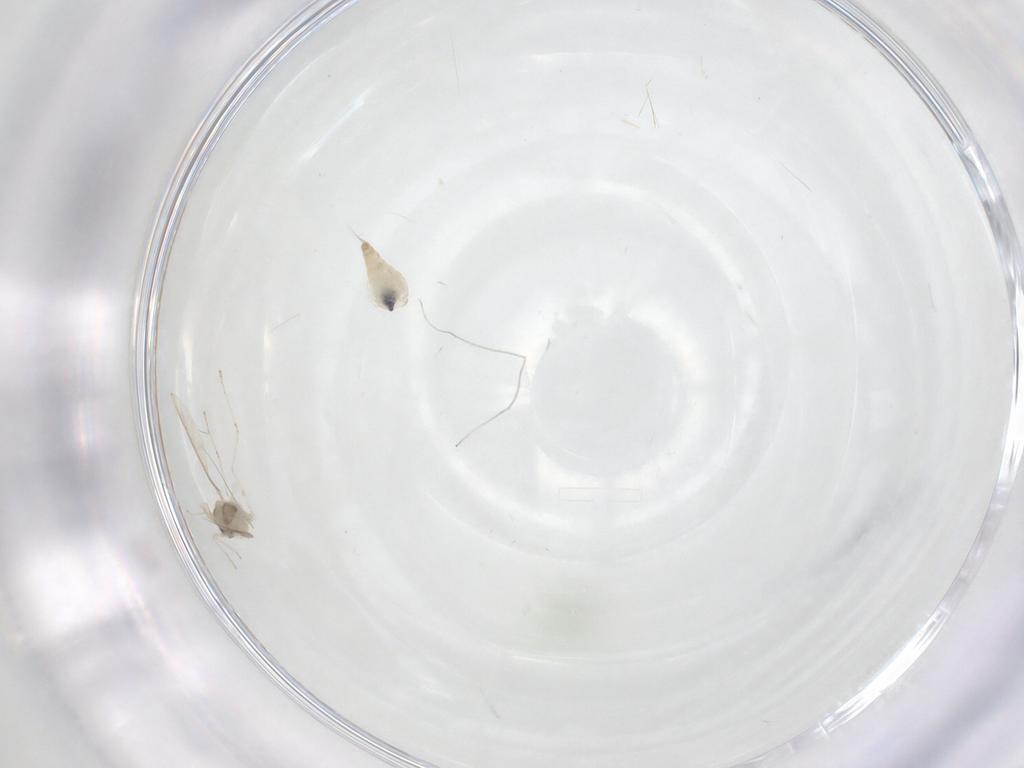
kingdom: Animalia
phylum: Arthropoda
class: Insecta
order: Diptera
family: Cecidomyiidae
